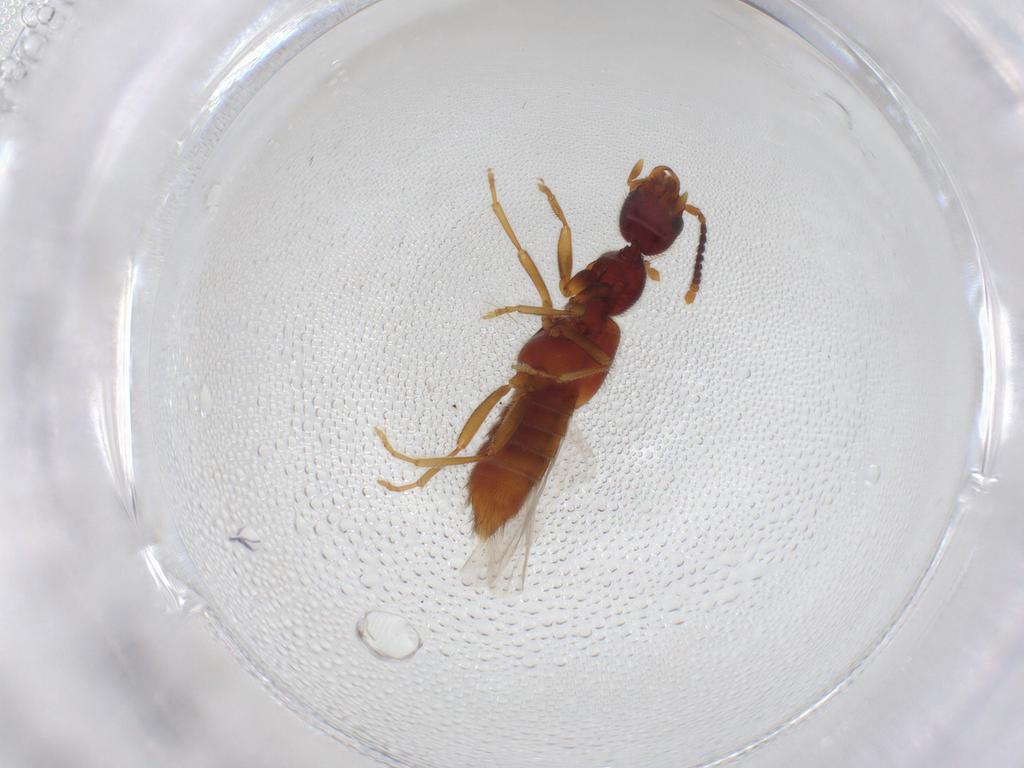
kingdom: Animalia
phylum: Arthropoda
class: Insecta
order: Coleoptera
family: Staphylinidae
